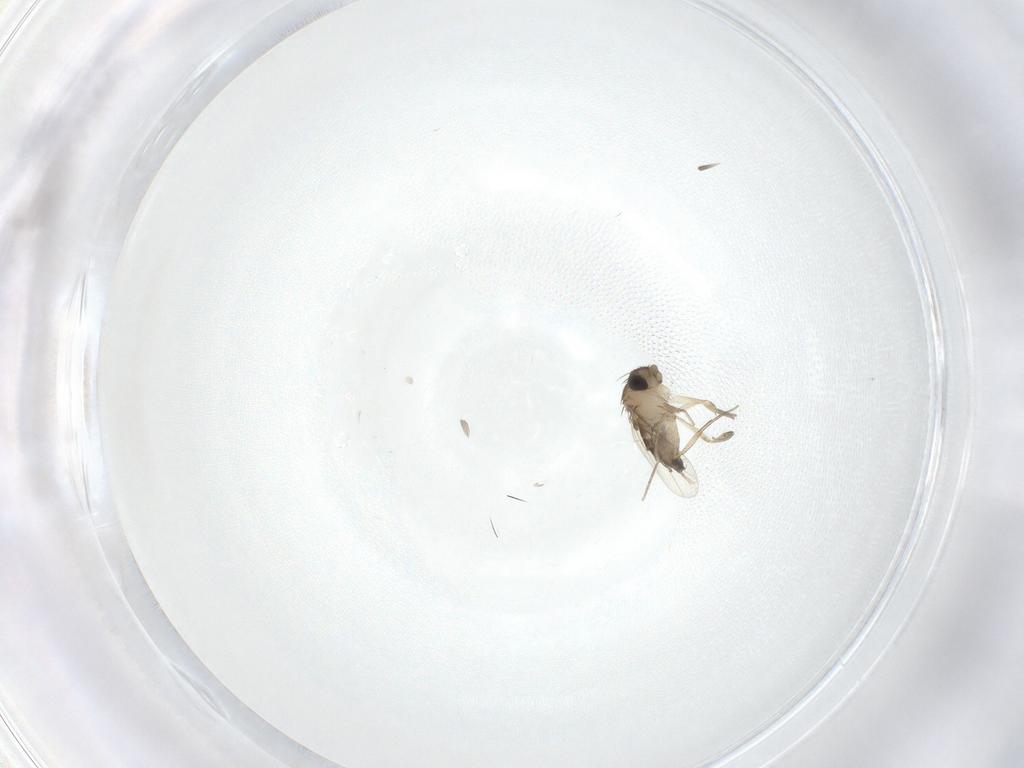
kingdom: Animalia
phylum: Arthropoda
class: Insecta
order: Diptera
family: Phoridae
